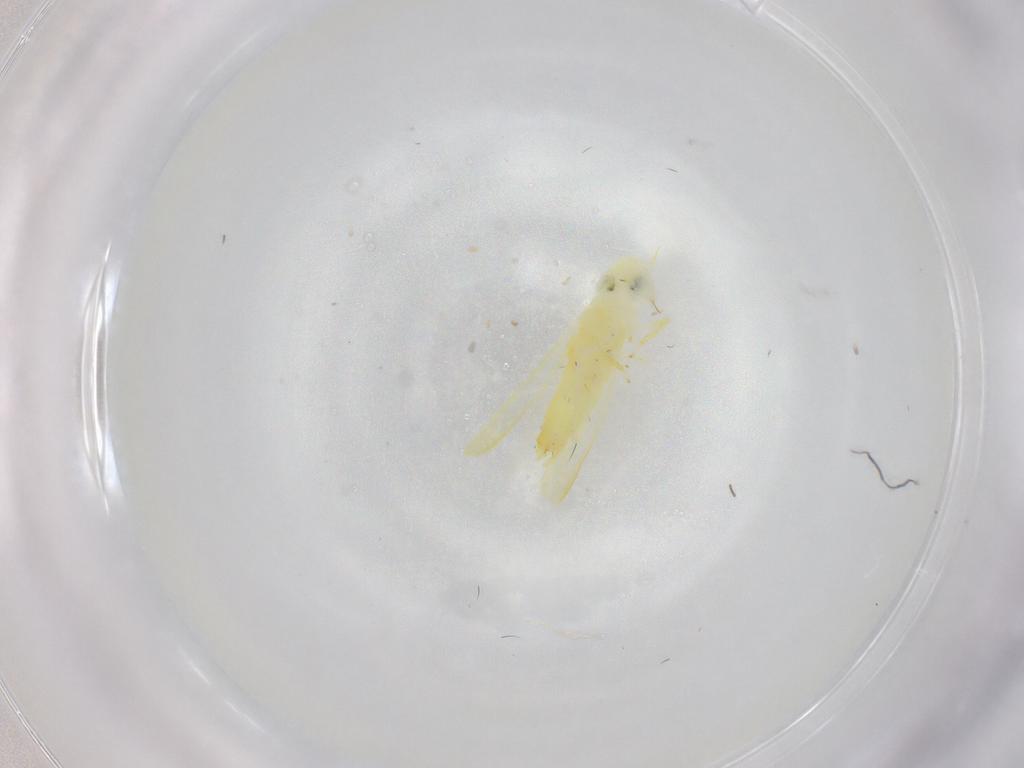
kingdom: Animalia
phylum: Arthropoda
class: Insecta
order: Hemiptera
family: Cicadellidae
